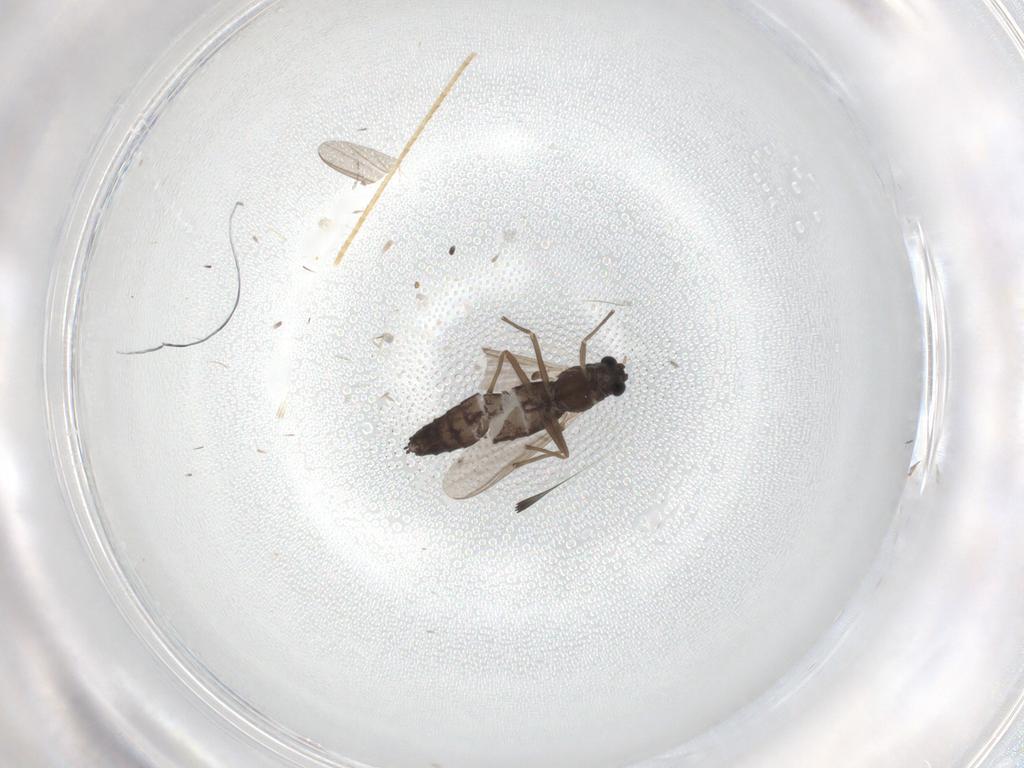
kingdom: Animalia
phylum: Arthropoda
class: Insecta
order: Diptera
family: Chironomidae
